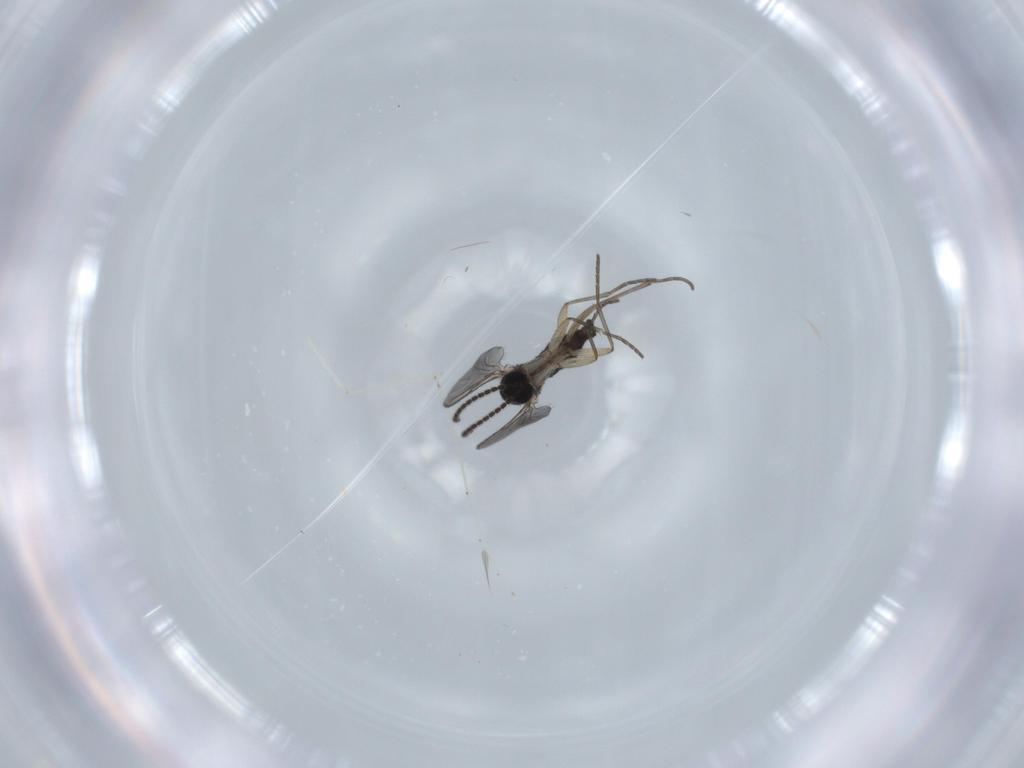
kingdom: Animalia
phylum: Arthropoda
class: Insecta
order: Diptera
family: Sciaridae
